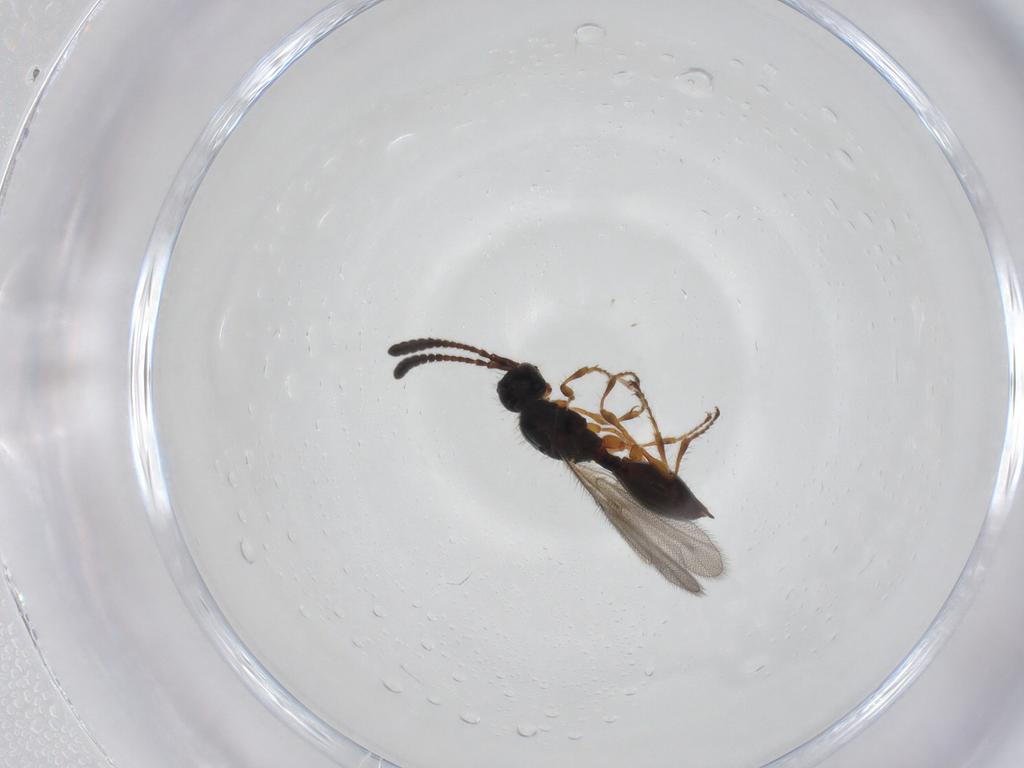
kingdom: Animalia
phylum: Arthropoda
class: Insecta
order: Hymenoptera
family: Diapriidae
